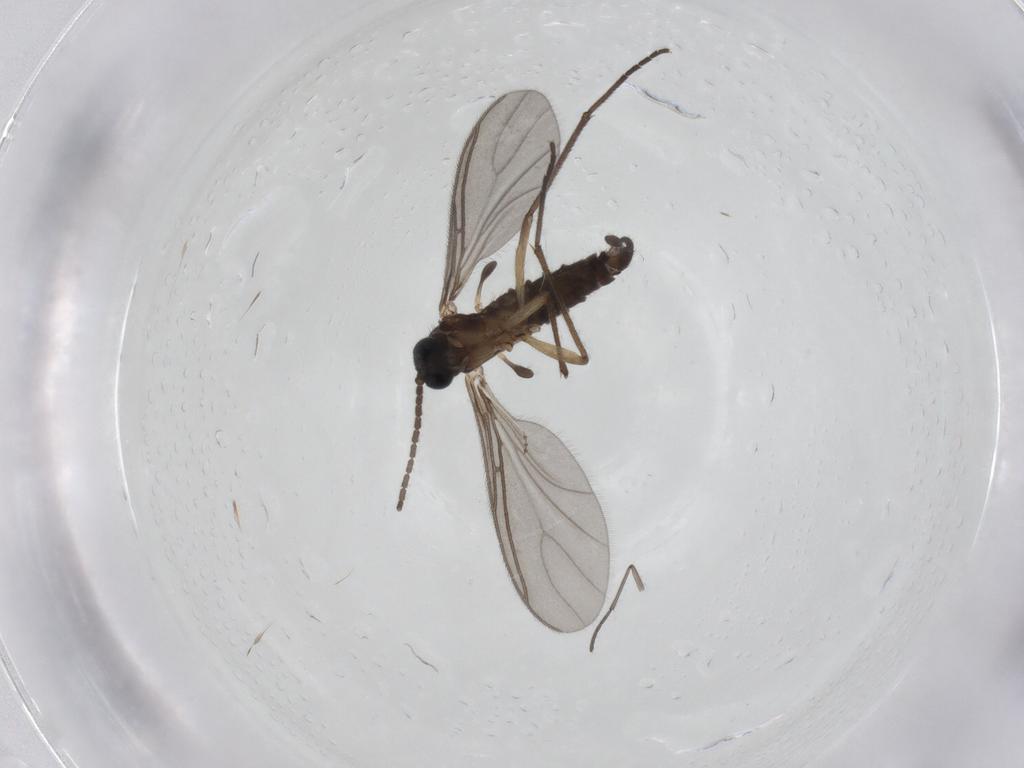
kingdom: Animalia
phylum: Arthropoda
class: Insecta
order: Diptera
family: Sciaridae
